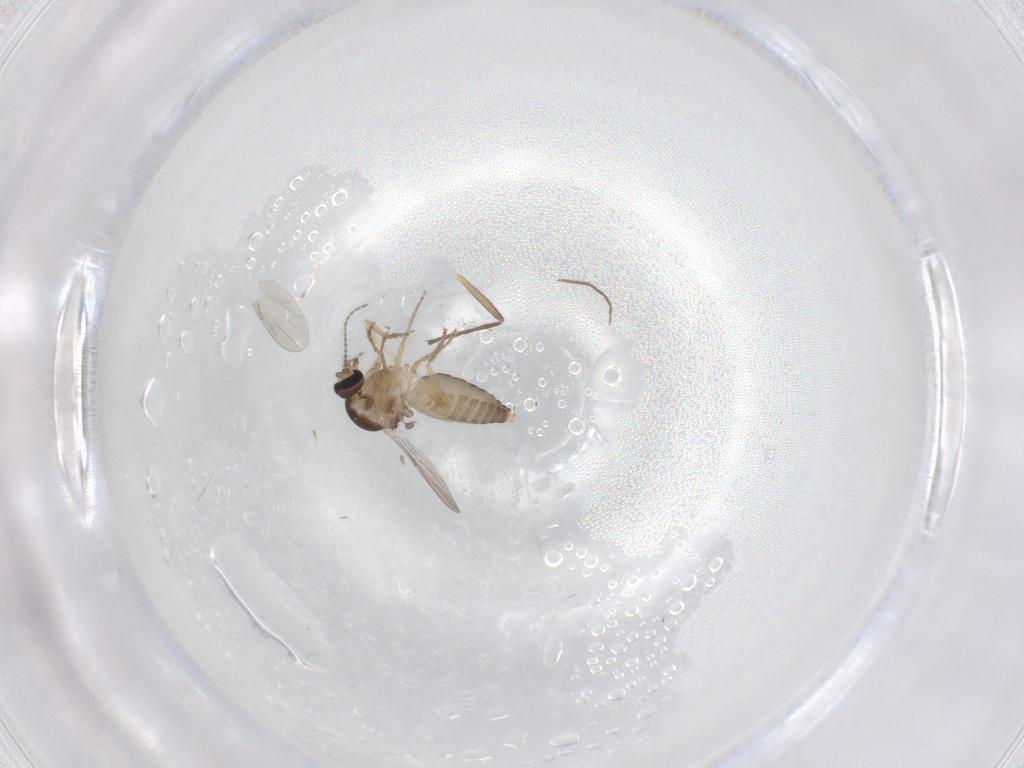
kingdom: Animalia
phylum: Arthropoda
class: Insecta
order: Diptera
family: Ceratopogonidae
